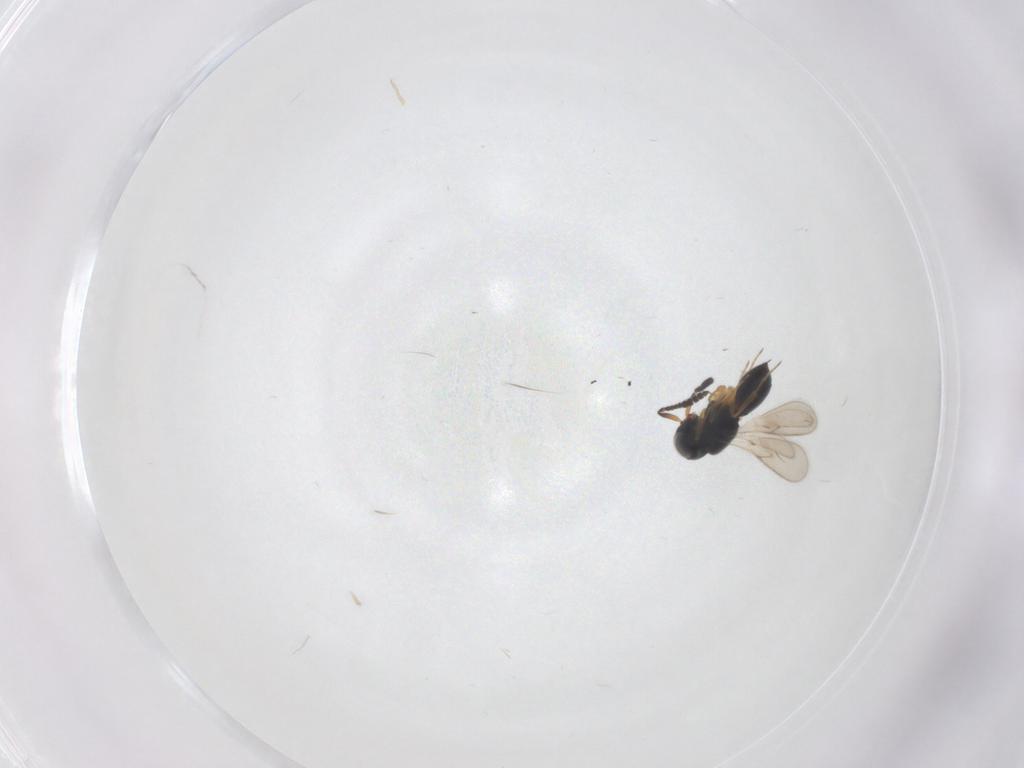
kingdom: Animalia
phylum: Arthropoda
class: Insecta
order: Hymenoptera
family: Scelionidae
